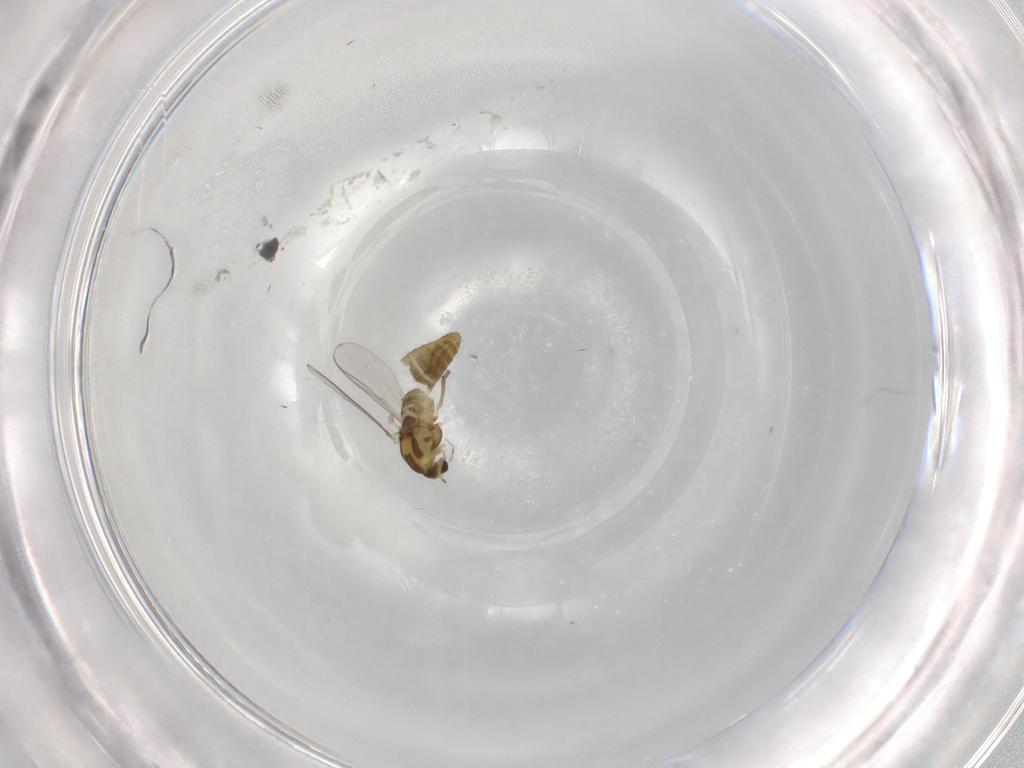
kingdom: Animalia
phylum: Arthropoda
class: Insecta
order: Diptera
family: Chironomidae
